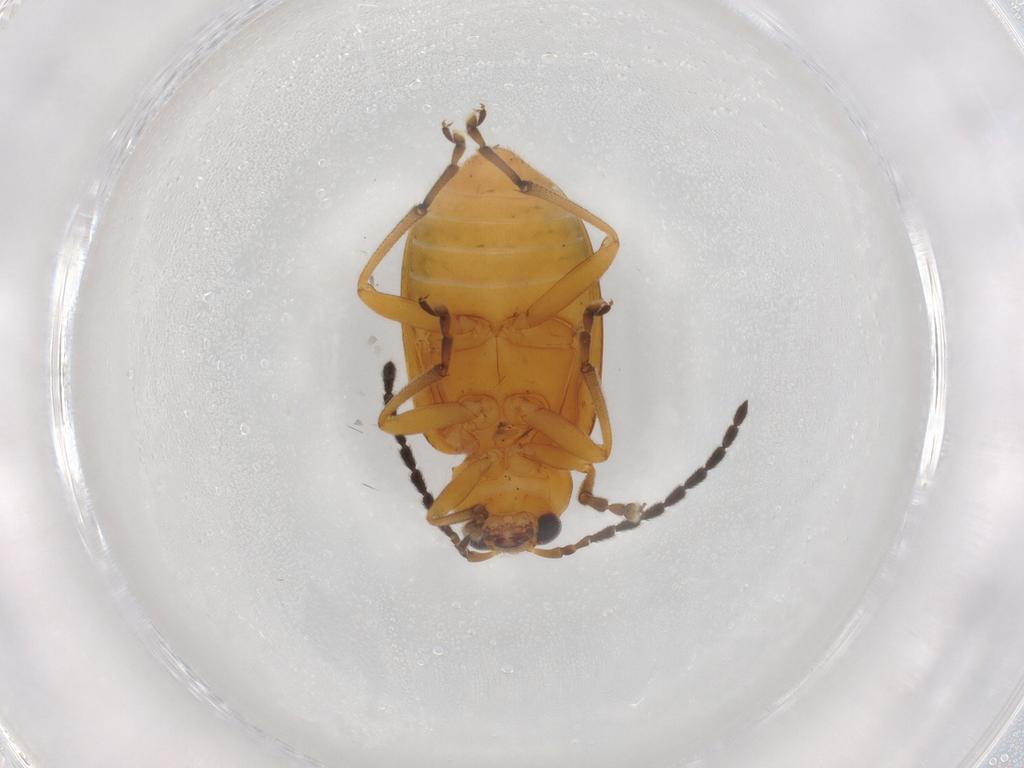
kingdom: Animalia
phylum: Arthropoda
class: Insecta
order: Coleoptera
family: Chrysomelidae
